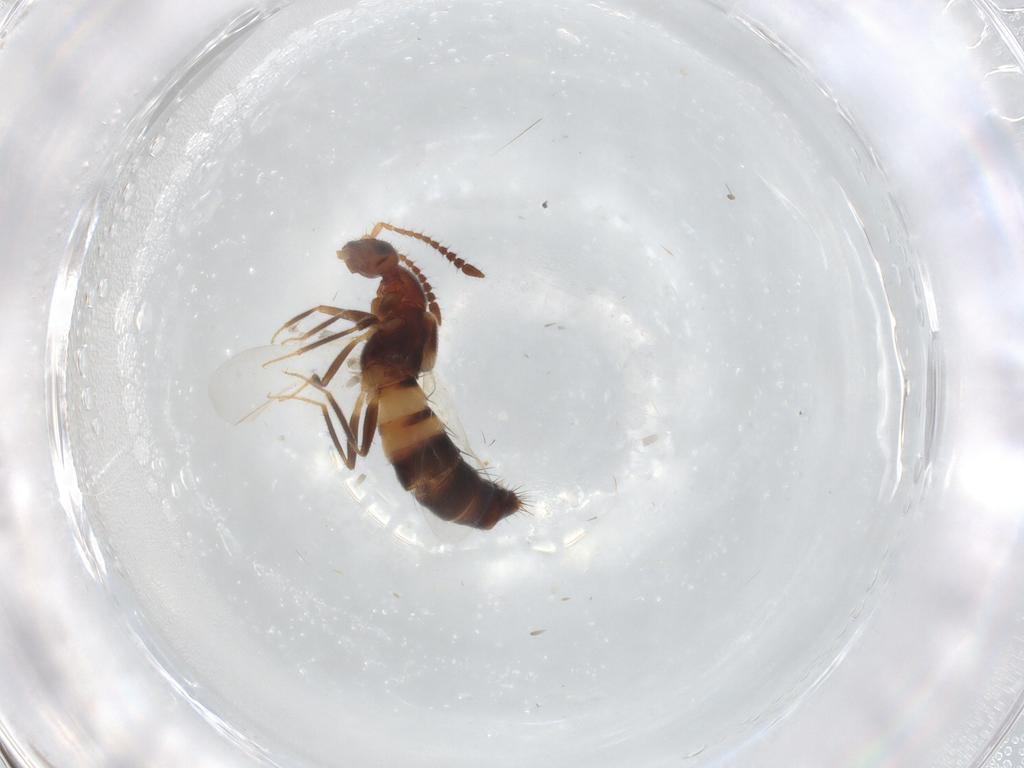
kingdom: Animalia
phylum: Arthropoda
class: Insecta
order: Coleoptera
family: Staphylinidae
